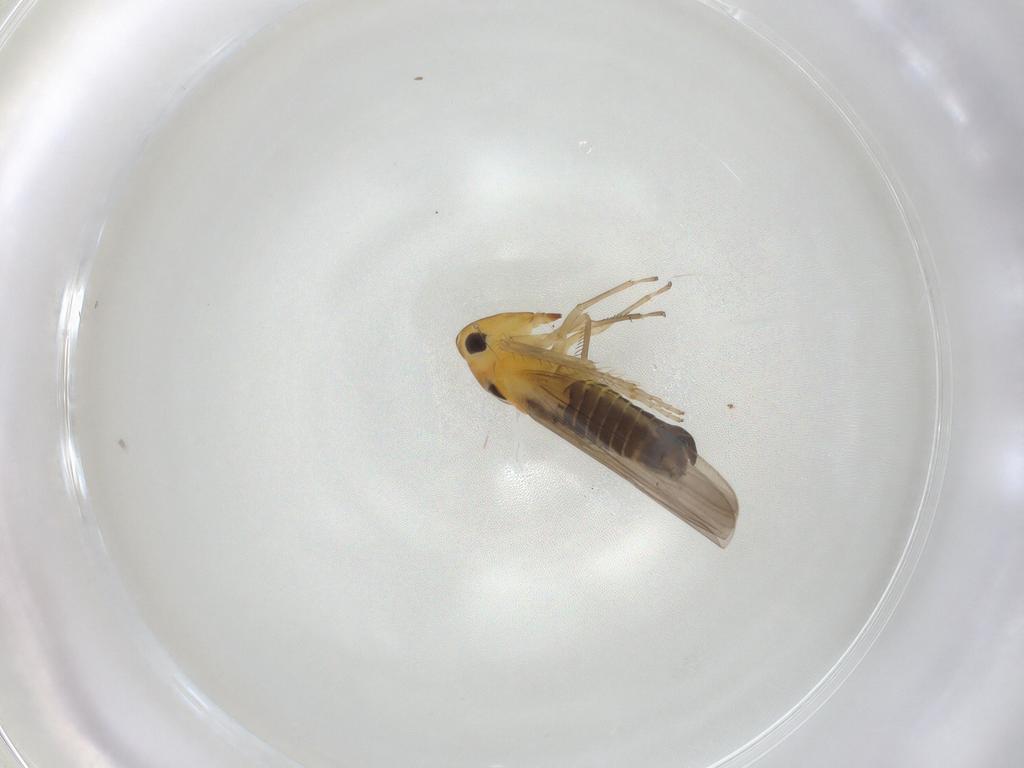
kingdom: Animalia
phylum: Arthropoda
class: Insecta
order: Hemiptera
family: Cicadellidae
